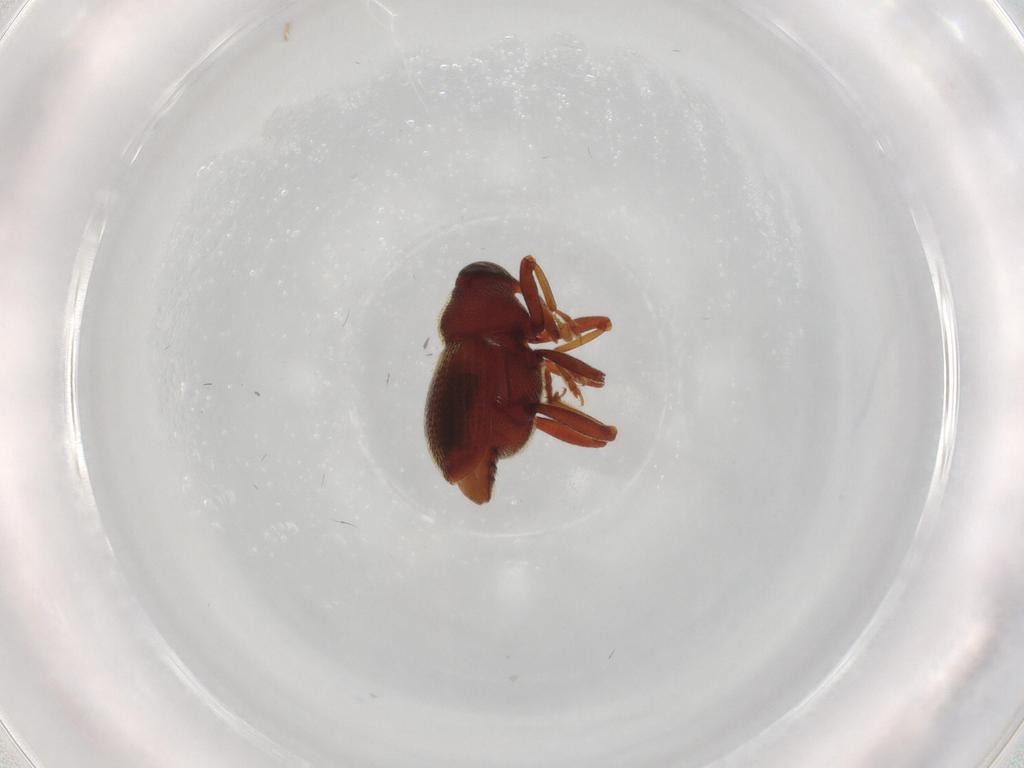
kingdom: Animalia
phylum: Arthropoda
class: Insecta
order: Coleoptera
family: Curculionidae
